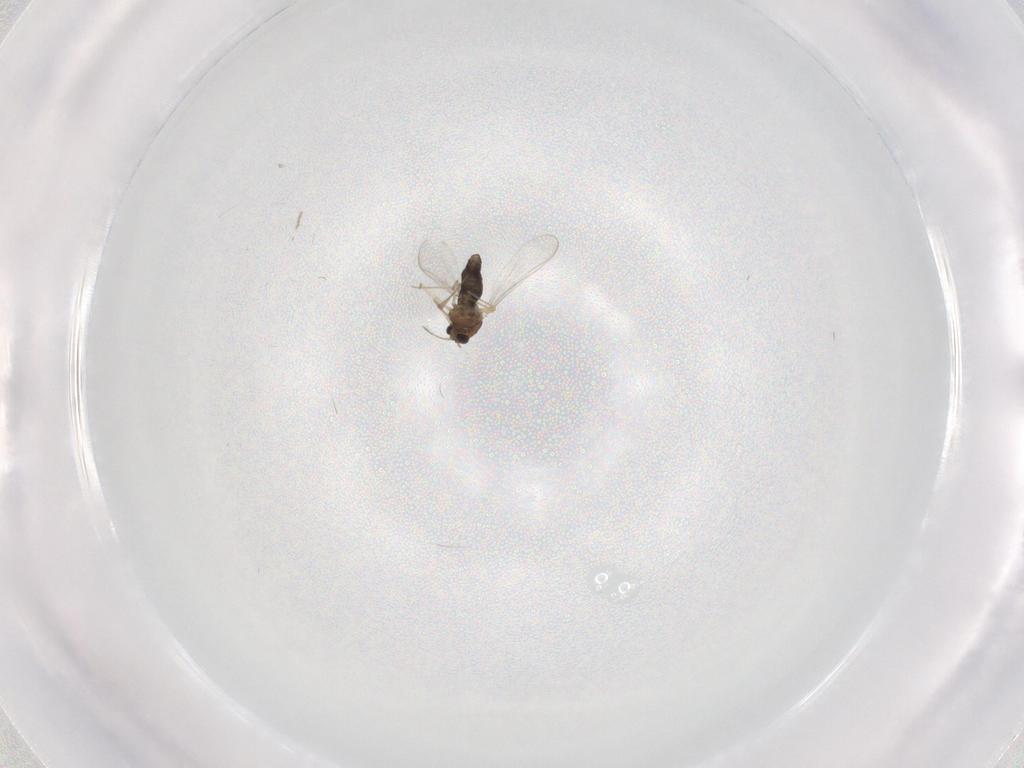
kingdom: Animalia
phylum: Arthropoda
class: Insecta
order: Diptera
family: Chironomidae
